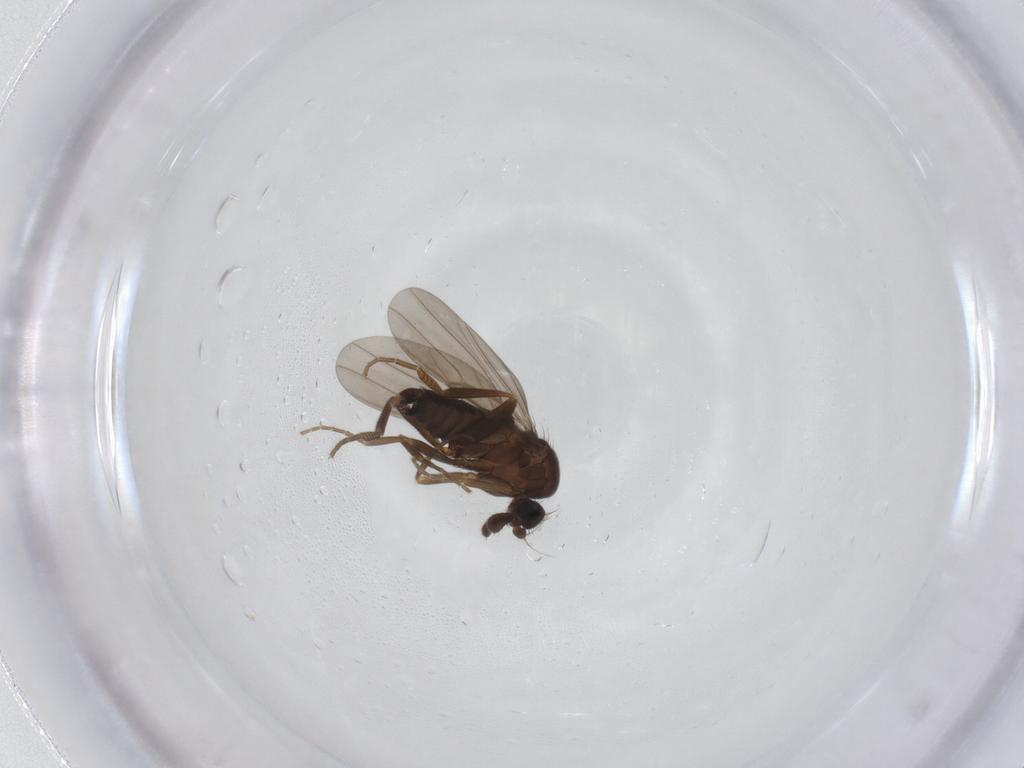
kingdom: Animalia
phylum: Arthropoda
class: Insecta
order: Diptera
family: Phoridae
